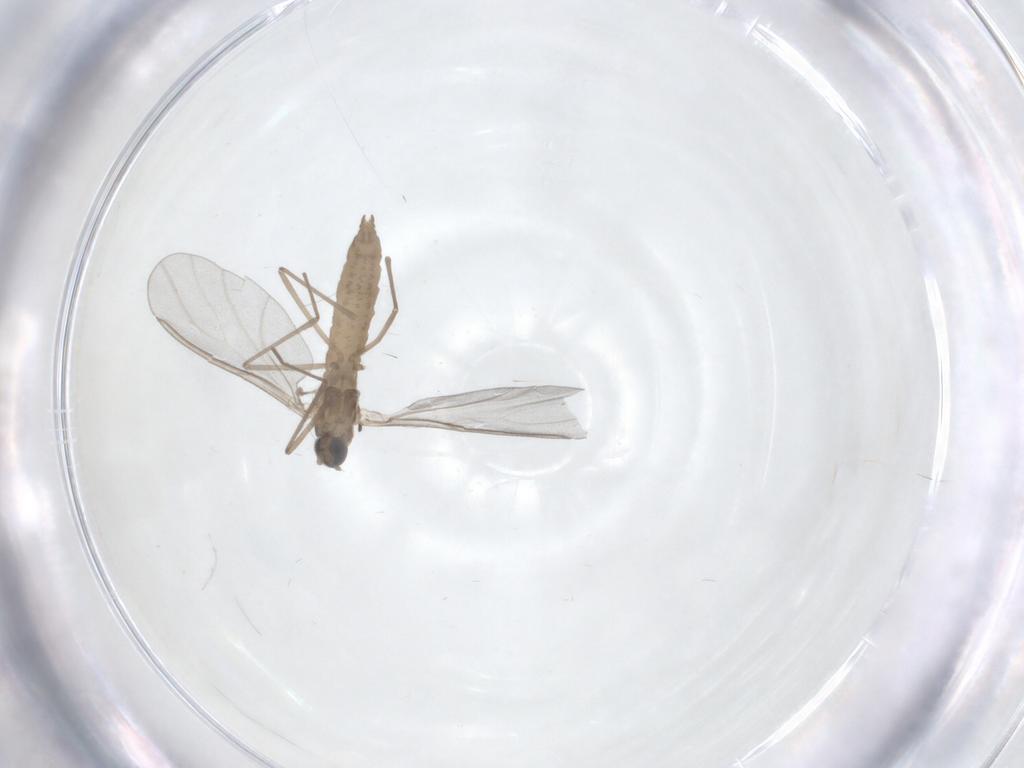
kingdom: Animalia
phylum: Arthropoda
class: Insecta
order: Diptera
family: Cecidomyiidae
